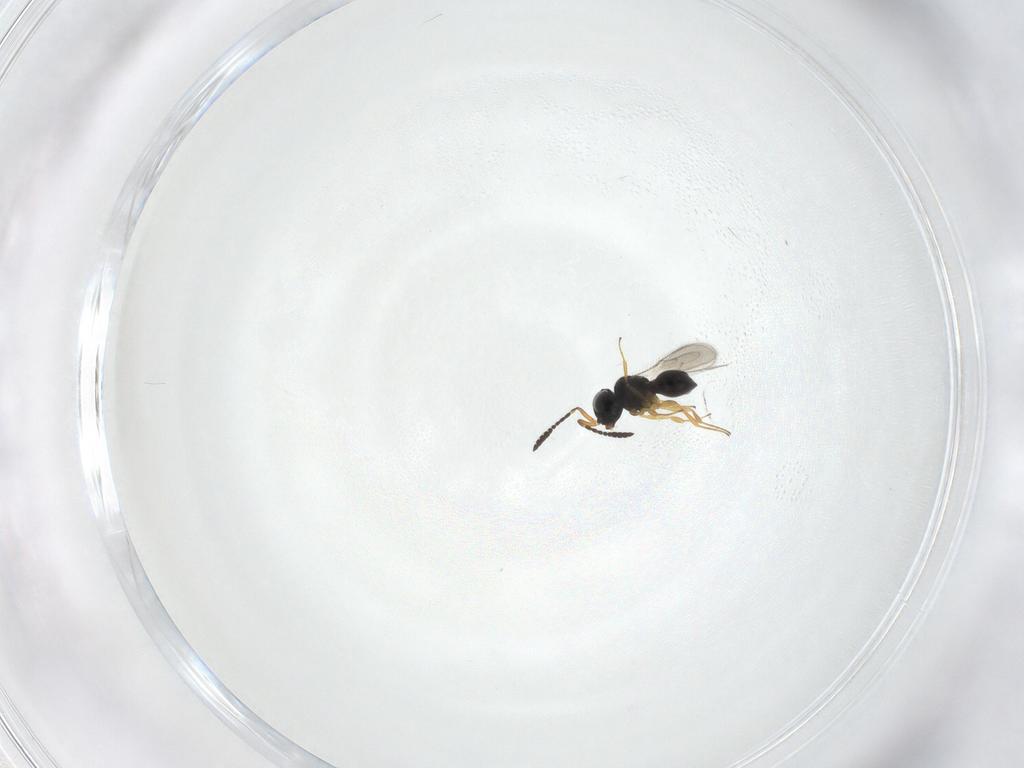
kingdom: Animalia
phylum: Arthropoda
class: Insecta
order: Hymenoptera
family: Scelionidae
